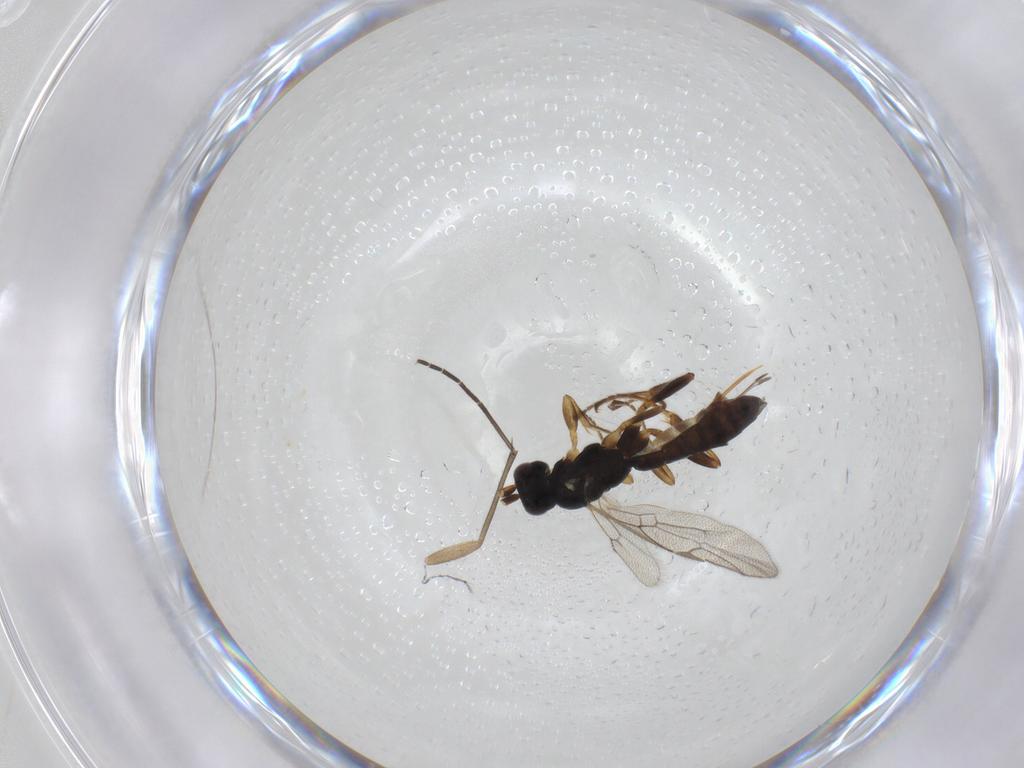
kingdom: Animalia
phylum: Arthropoda
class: Insecta
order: Hymenoptera
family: Ichneumonidae
